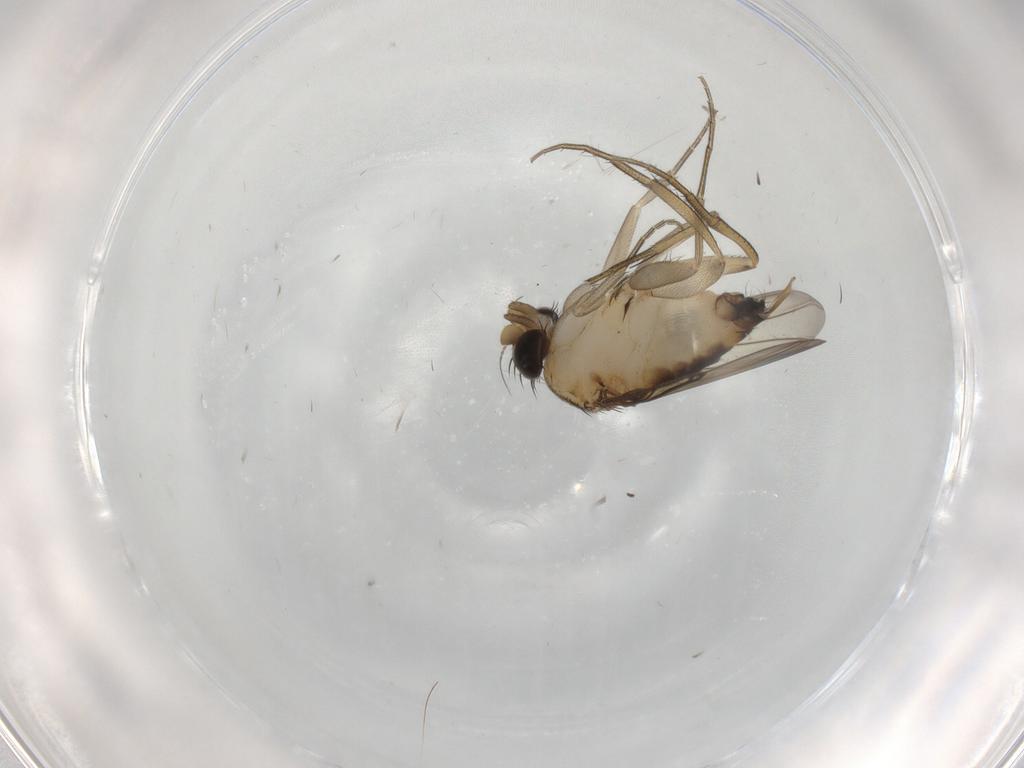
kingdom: Animalia
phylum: Arthropoda
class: Insecta
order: Diptera
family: Phoridae
